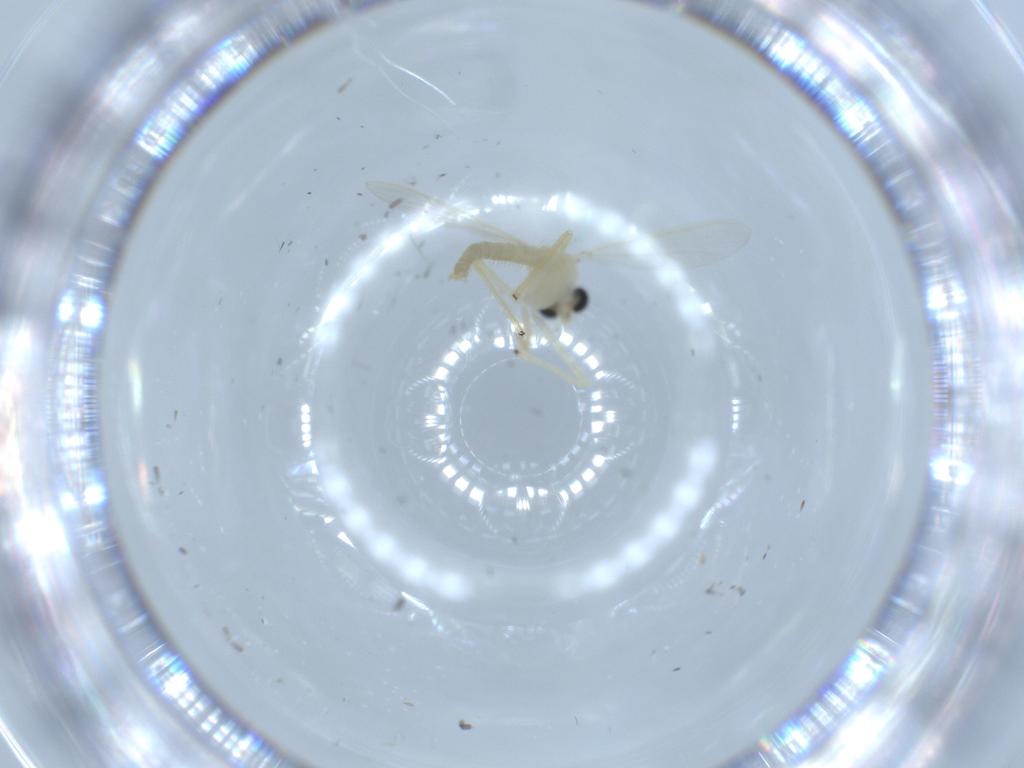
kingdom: Animalia
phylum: Arthropoda
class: Insecta
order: Diptera
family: Chironomidae
